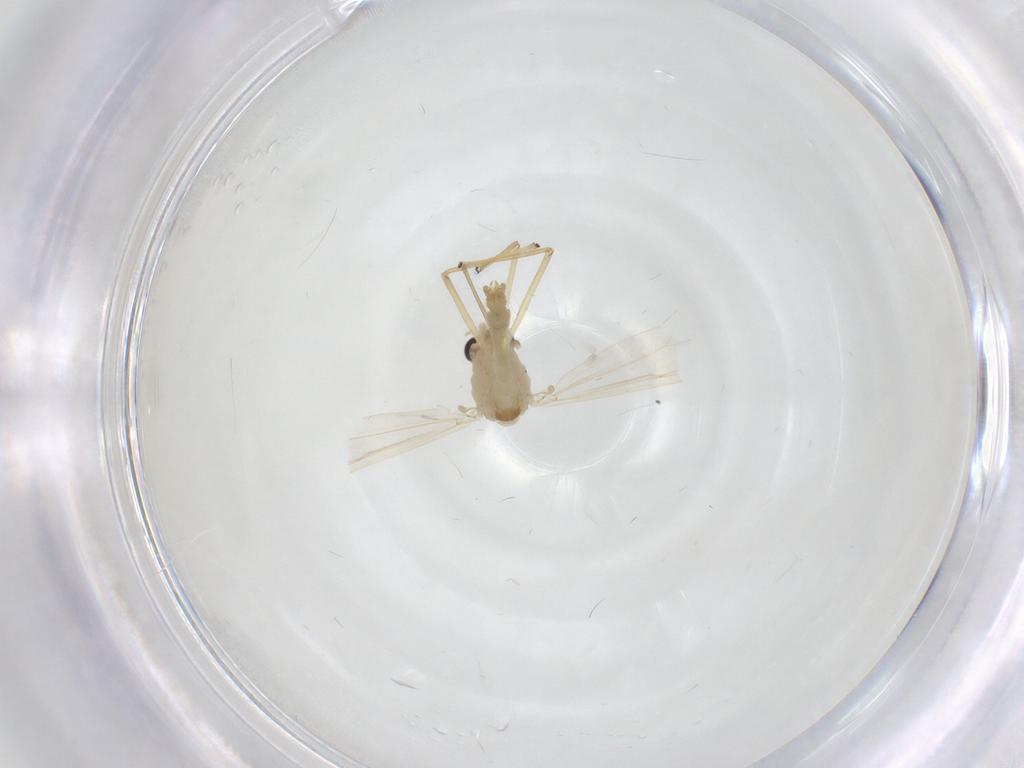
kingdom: Animalia
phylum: Arthropoda
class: Insecta
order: Diptera
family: Chironomidae
